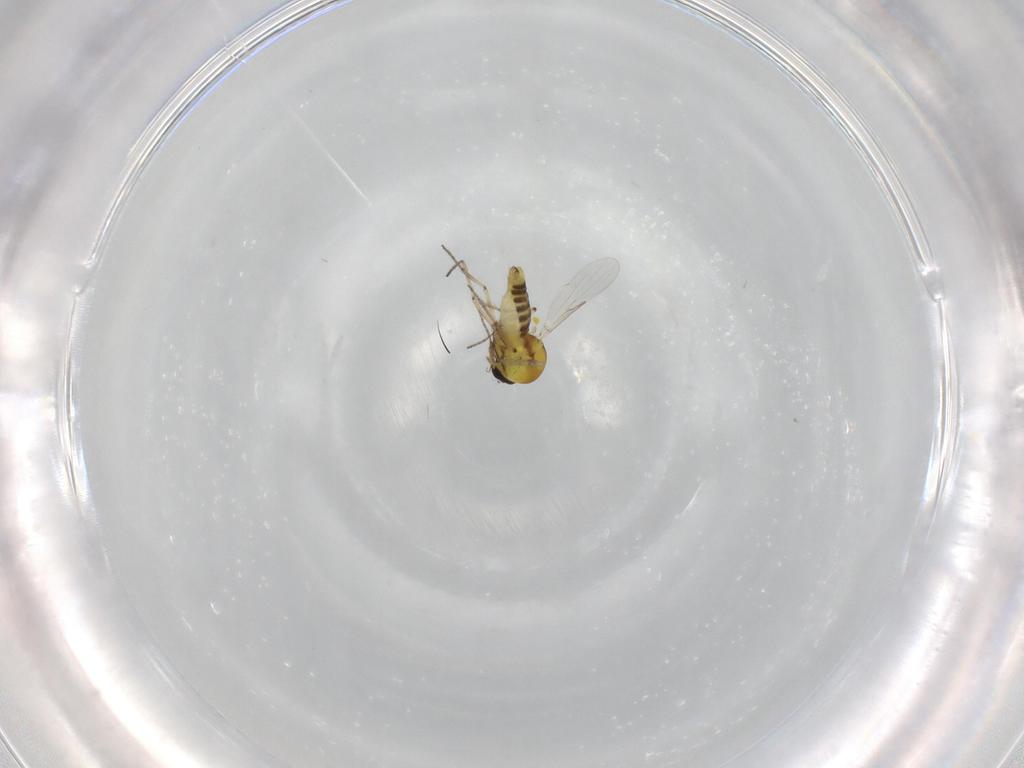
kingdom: Animalia
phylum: Arthropoda
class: Insecta
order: Diptera
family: Ceratopogonidae
